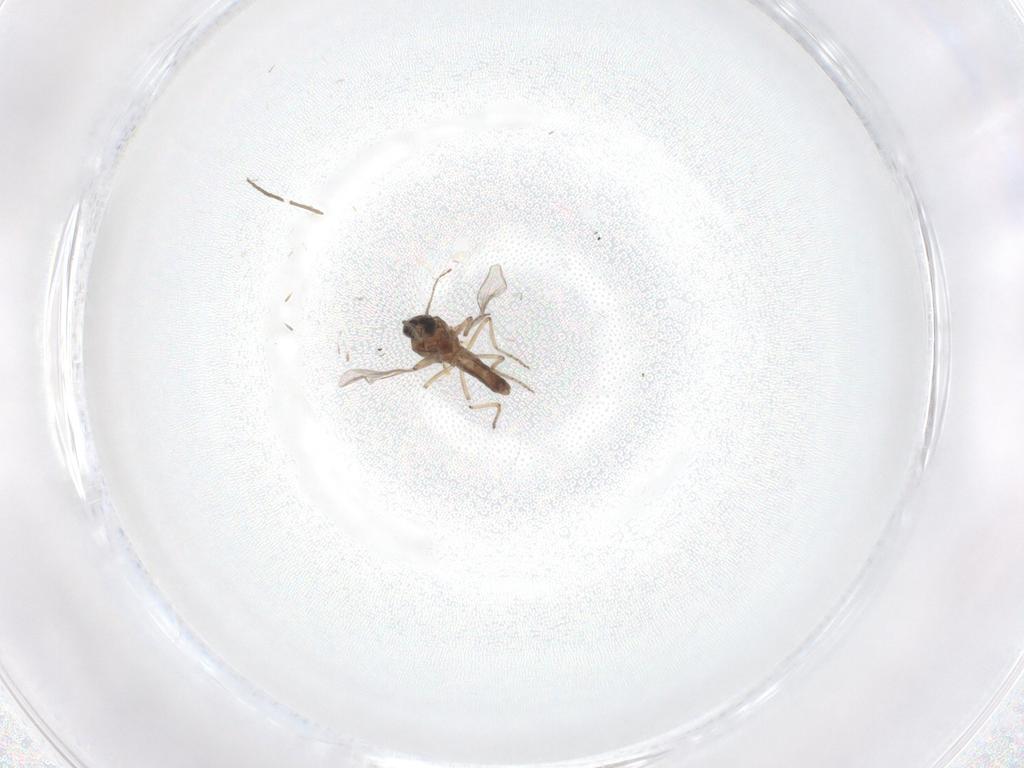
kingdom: Animalia
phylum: Arthropoda
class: Insecta
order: Diptera
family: Ceratopogonidae
